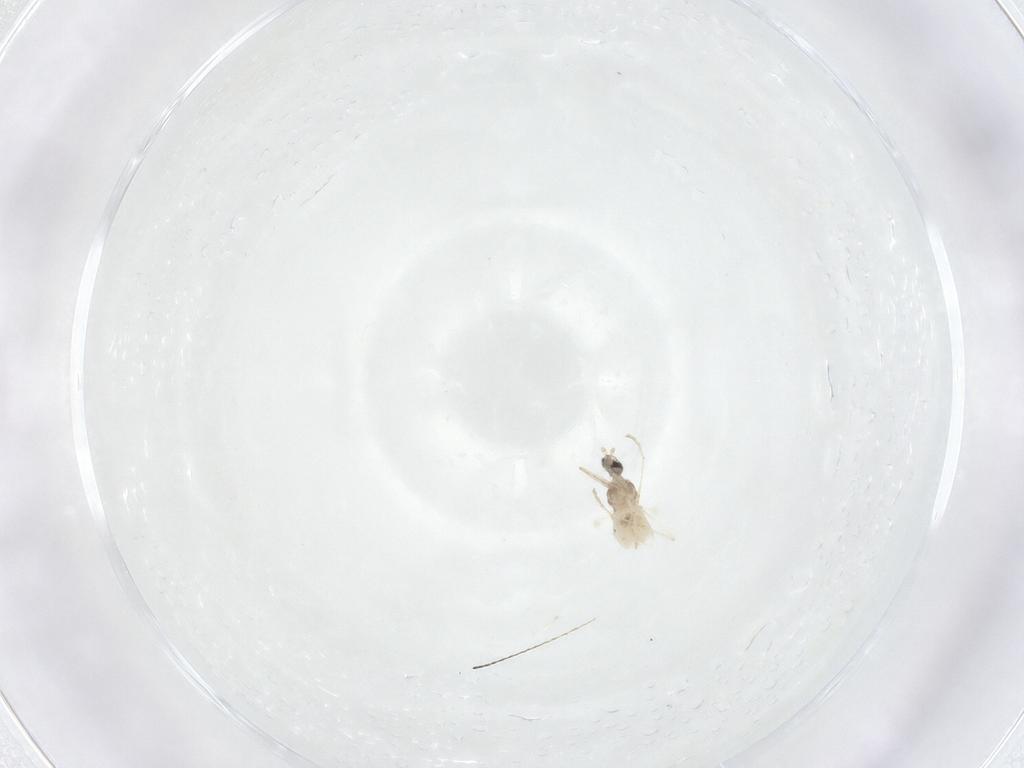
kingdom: Animalia
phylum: Arthropoda
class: Insecta
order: Diptera
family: Cecidomyiidae
